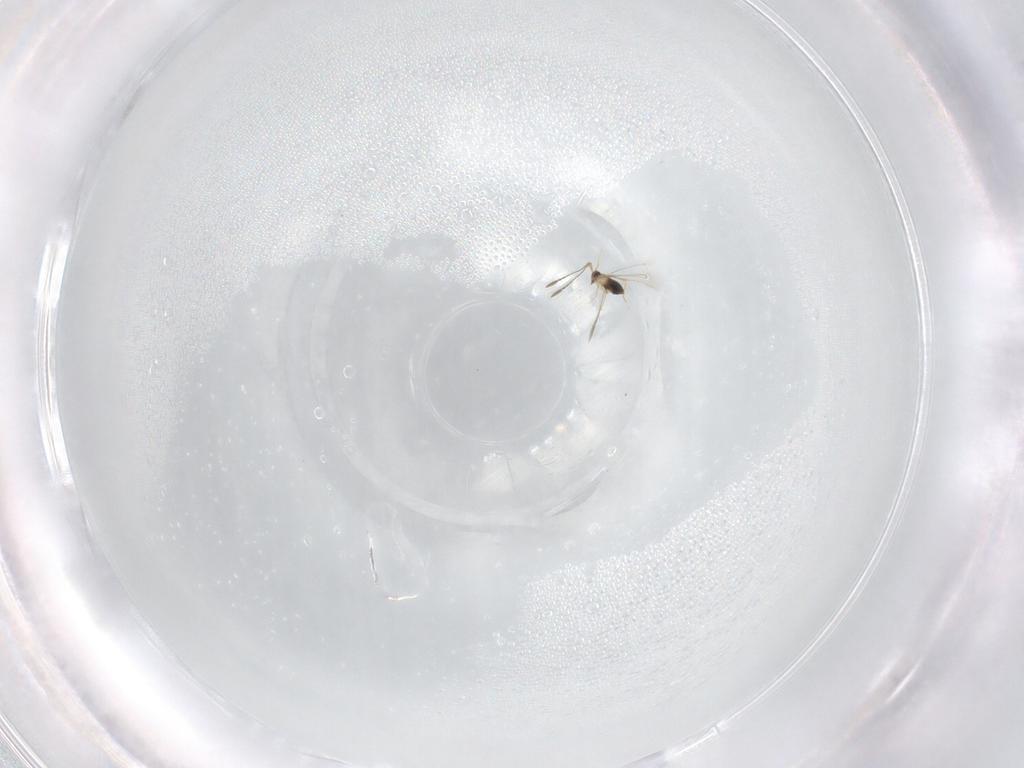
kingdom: Animalia
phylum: Arthropoda
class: Insecta
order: Hymenoptera
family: Mymaridae
